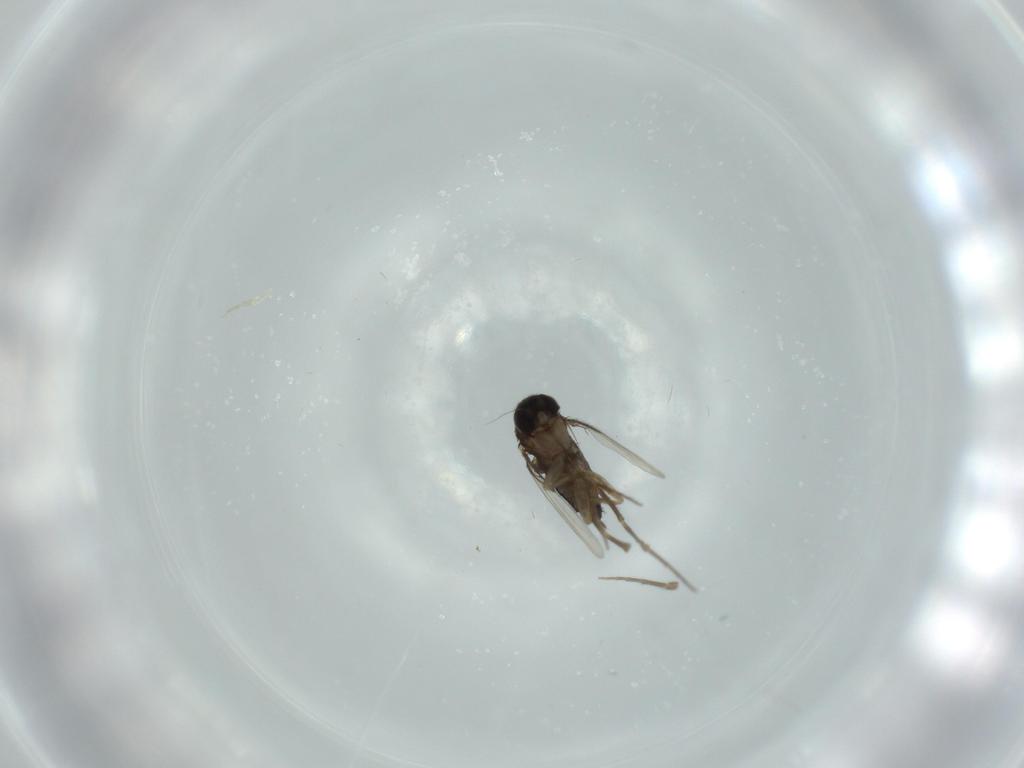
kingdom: Animalia
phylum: Arthropoda
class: Insecta
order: Diptera
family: Phoridae
